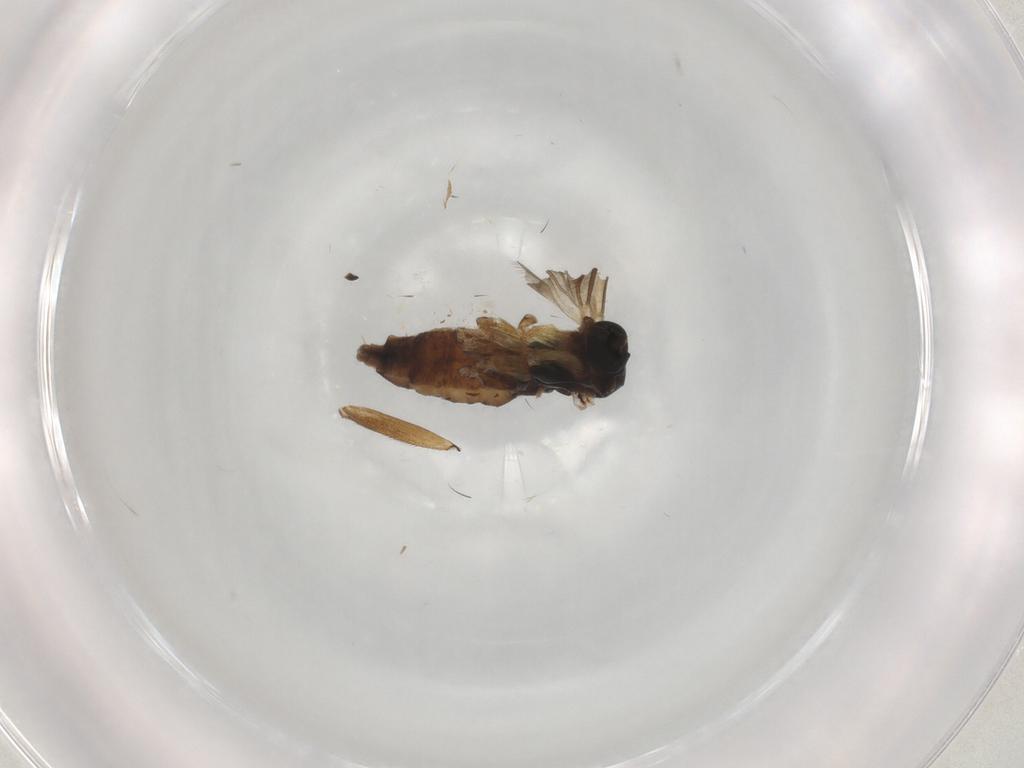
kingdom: Animalia
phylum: Arthropoda
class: Insecta
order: Diptera
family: Sciaridae
